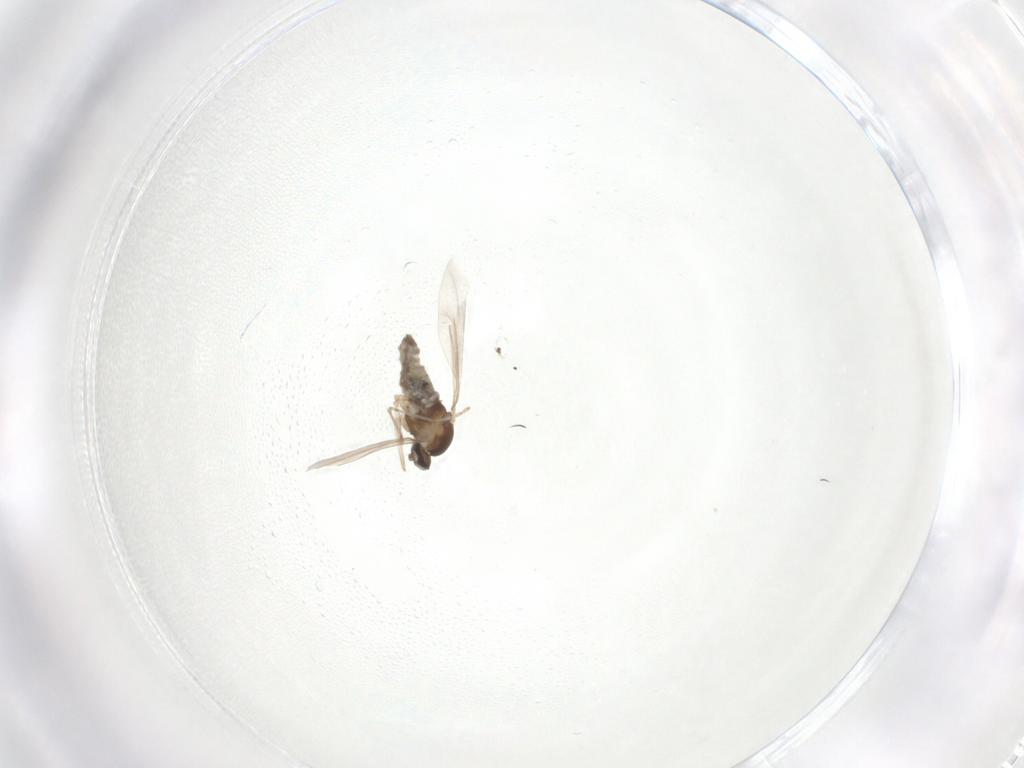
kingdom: Animalia
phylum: Arthropoda
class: Insecta
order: Diptera
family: Cecidomyiidae
